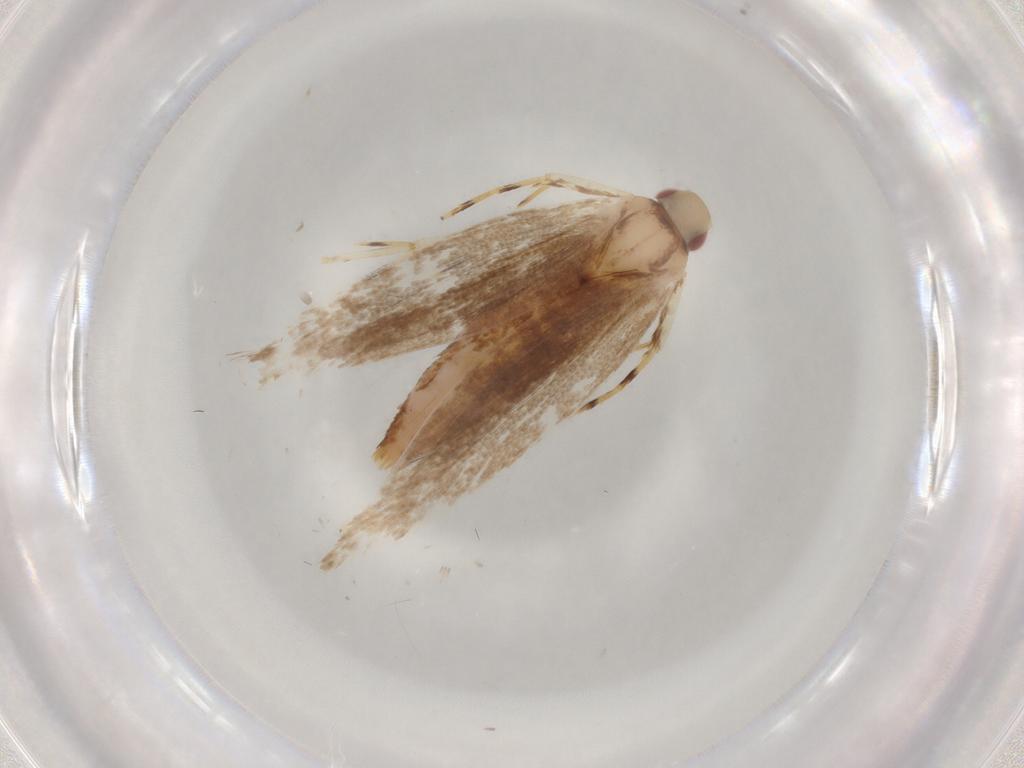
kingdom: Animalia
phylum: Arthropoda
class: Insecta
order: Lepidoptera
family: Cosmopterigidae
